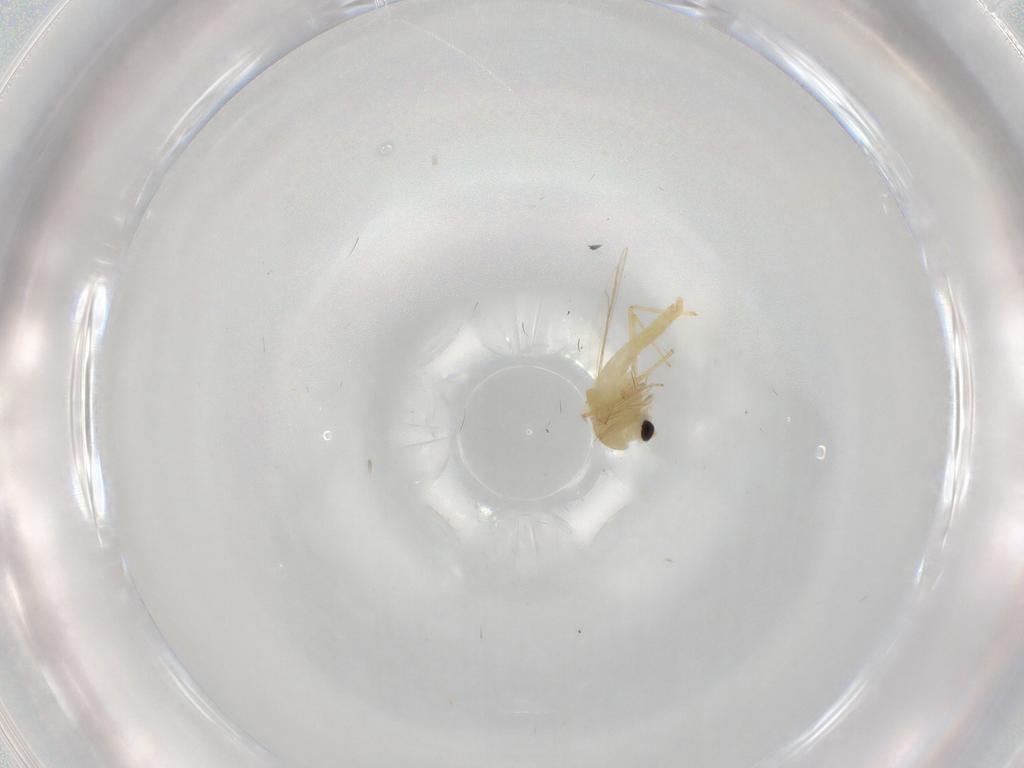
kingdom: Animalia
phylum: Arthropoda
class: Insecta
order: Diptera
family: Chironomidae
